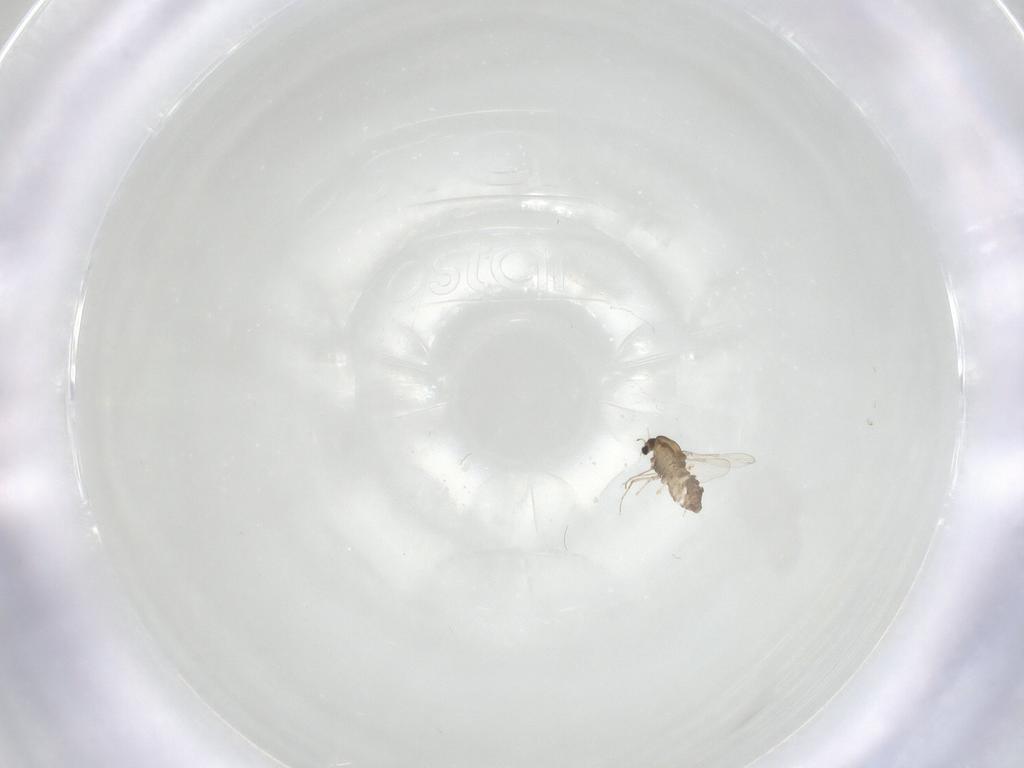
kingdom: Animalia
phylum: Arthropoda
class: Insecta
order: Diptera
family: Chironomidae
